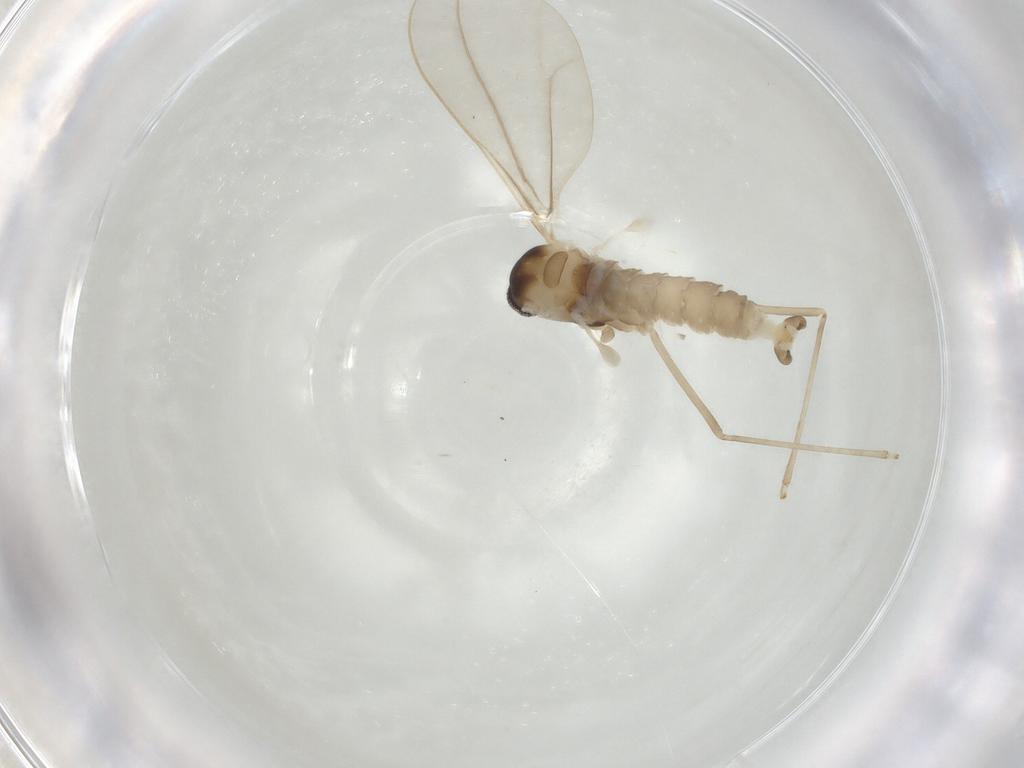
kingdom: Animalia
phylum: Arthropoda
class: Insecta
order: Diptera
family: Sciaridae
